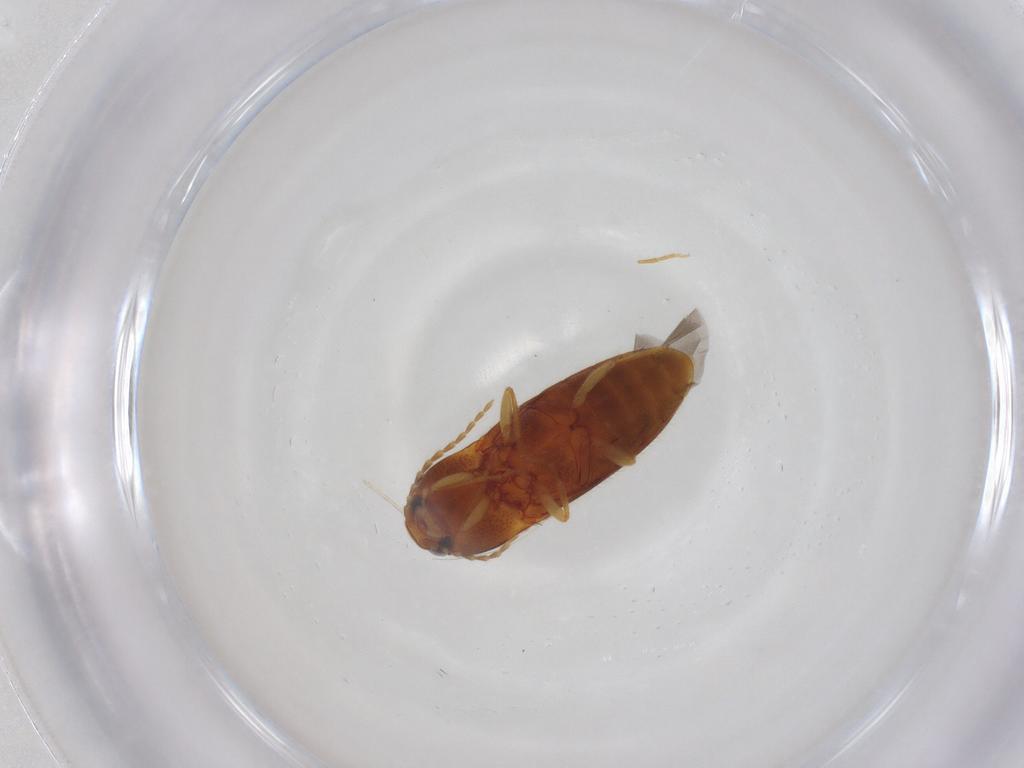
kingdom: Animalia
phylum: Arthropoda
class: Insecta
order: Coleoptera
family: Elateridae
